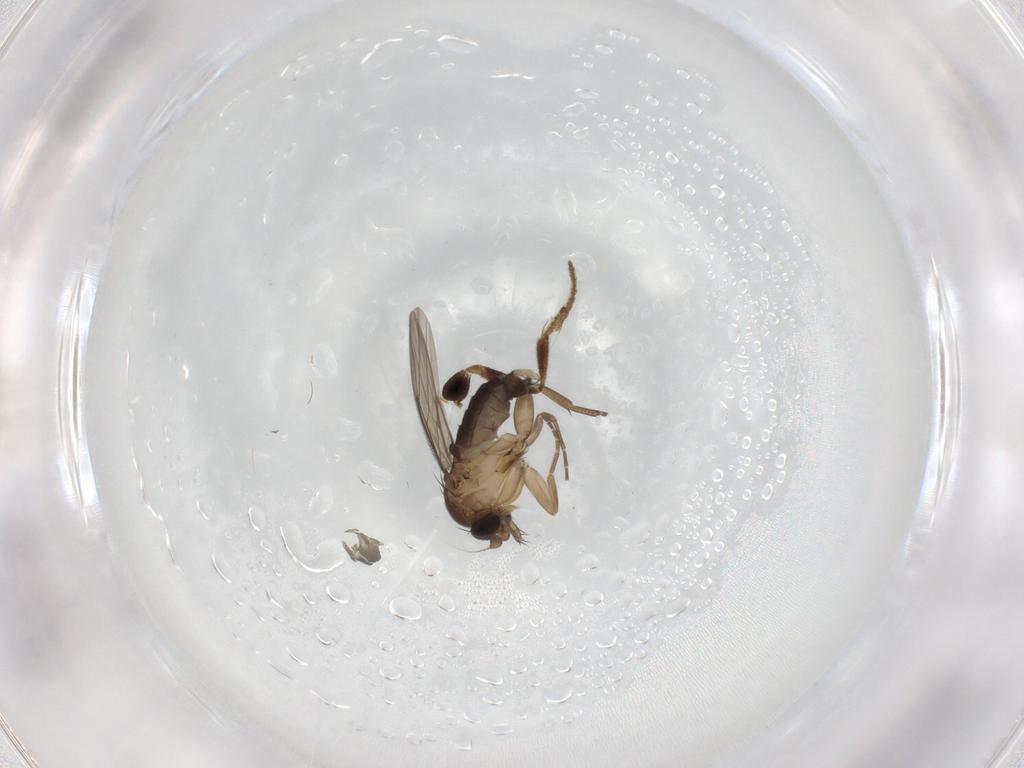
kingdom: Animalia
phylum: Arthropoda
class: Insecta
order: Diptera
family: Phoridae
